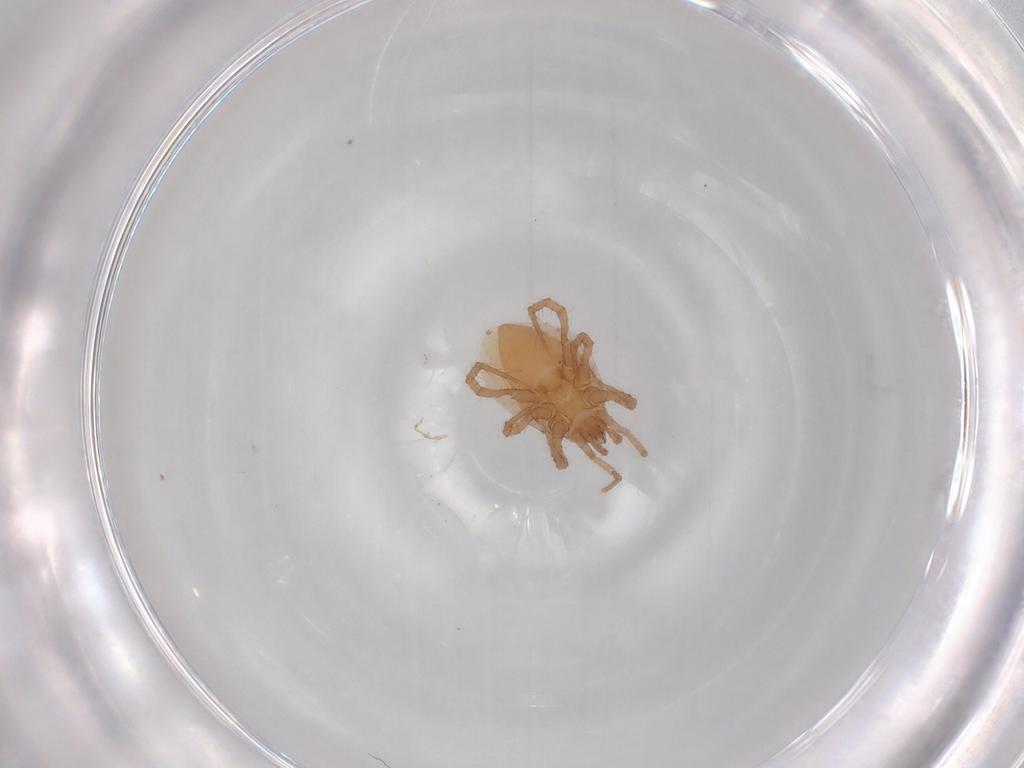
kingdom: Animalia
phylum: Arthropoda
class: Arachnida
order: Mesostigmata
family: Parasitidae
